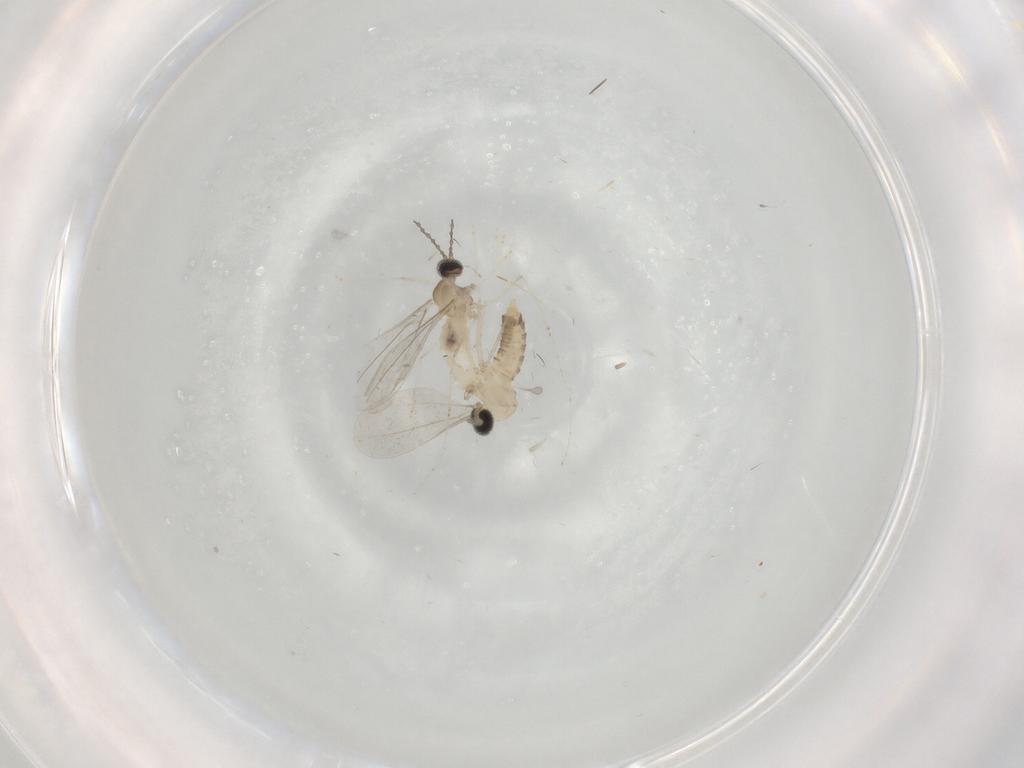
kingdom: Animalia
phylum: Arthropoda
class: Insecta
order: Diptera
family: Ceratopogonidae
